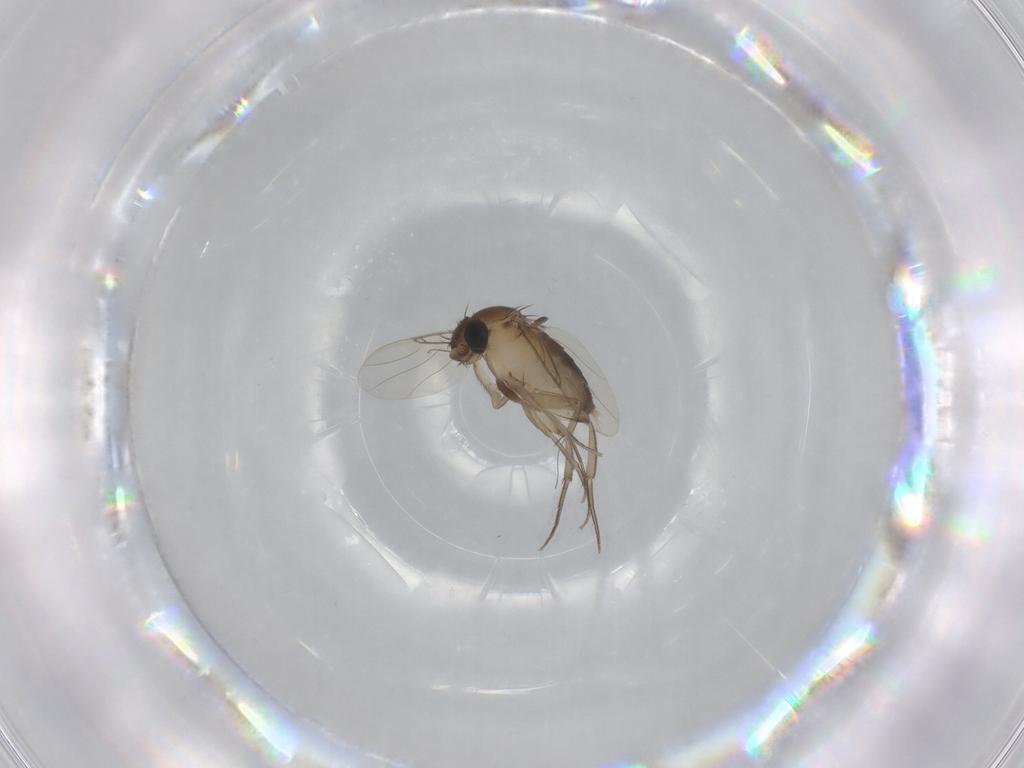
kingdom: Animalia
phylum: Arthropoda
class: Insecta
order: Diptera
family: Phoridae
